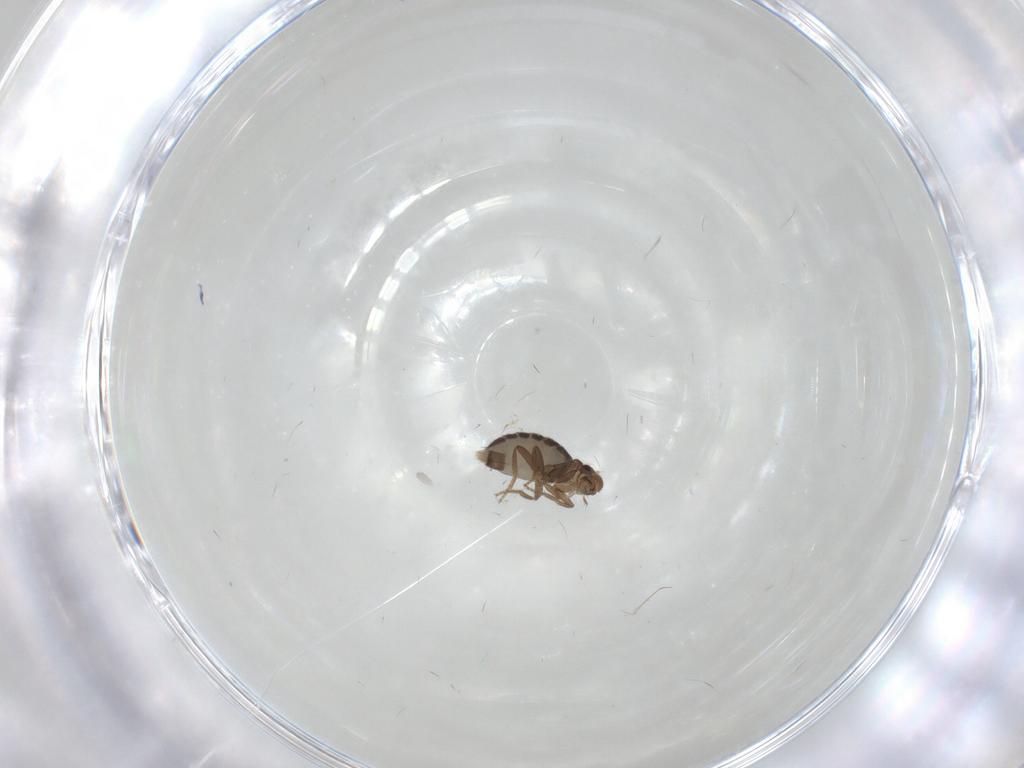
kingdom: Animalia
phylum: Arthropoda
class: Insecta
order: Diptera
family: Phoridae
